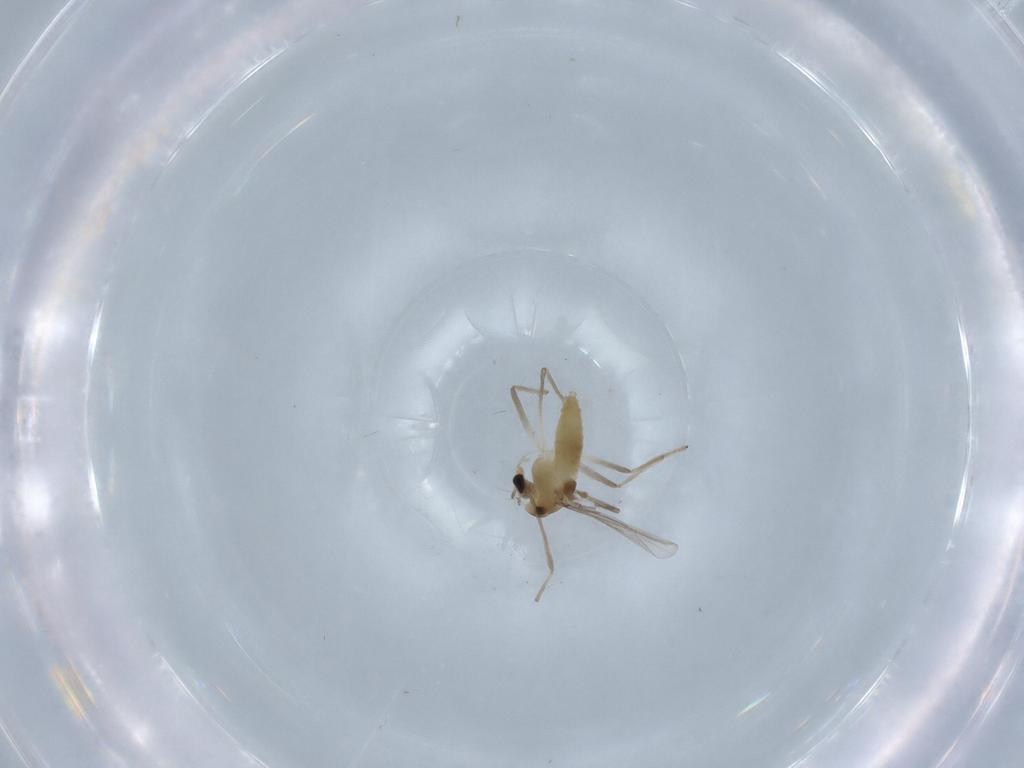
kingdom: Animalia
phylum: Arthropoda
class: Insecta
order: Diptera
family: Chironomidae
